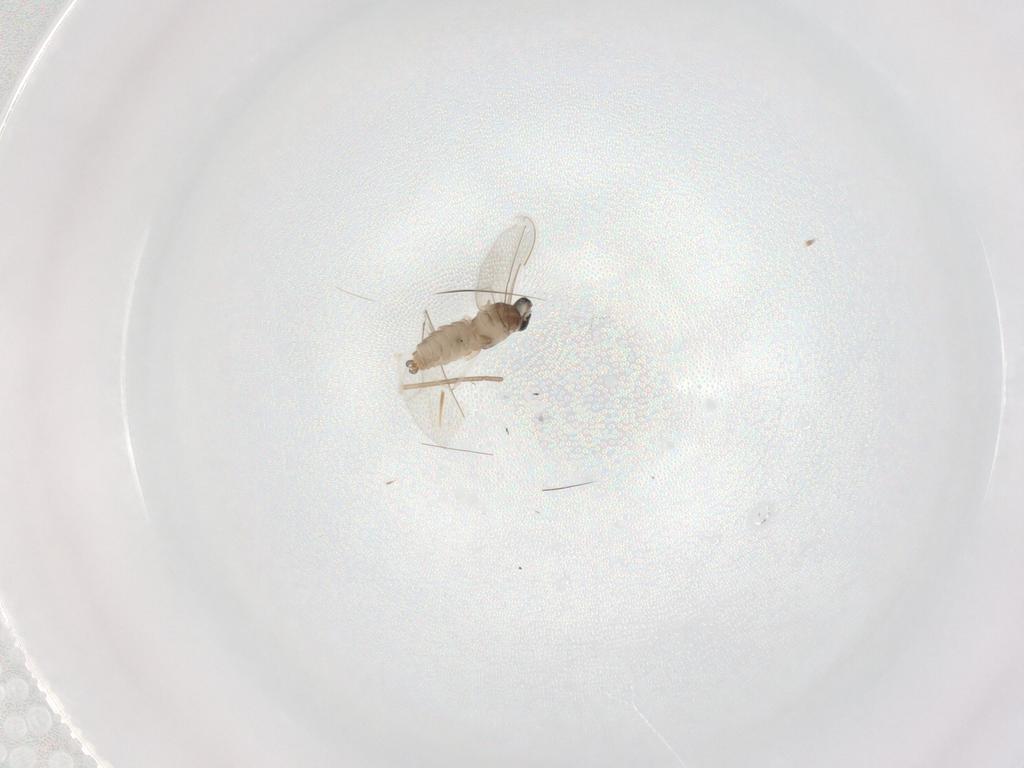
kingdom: Animalia
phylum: Arthropoda
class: Insecta
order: Diptera
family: Cecidomyiidae
